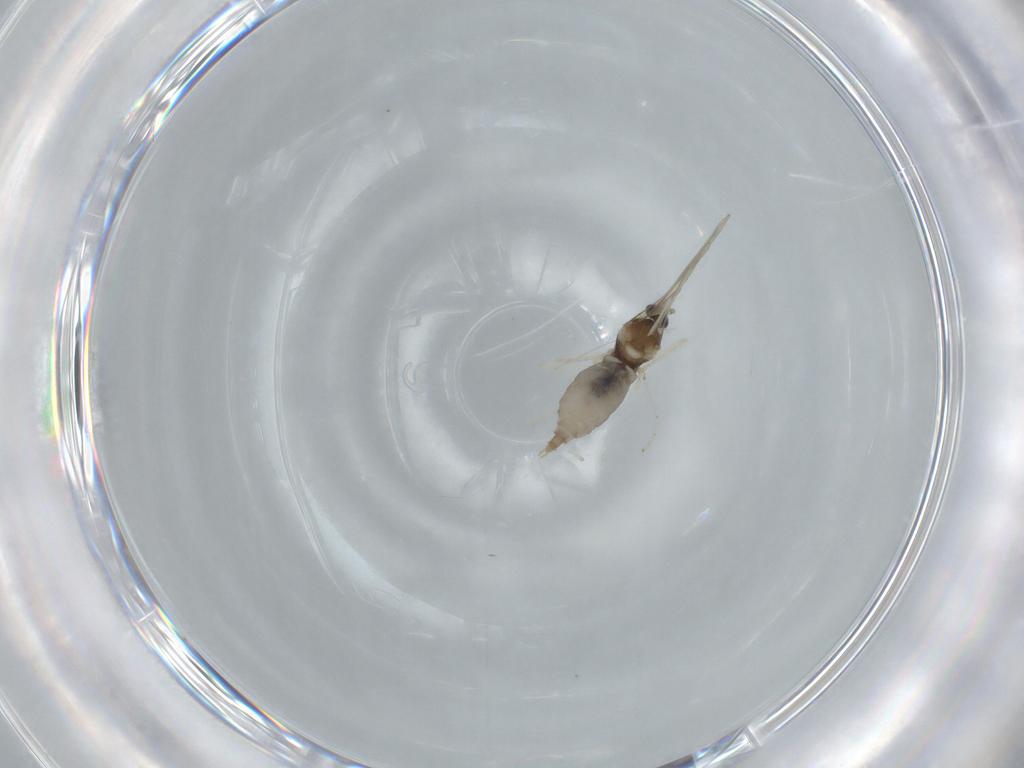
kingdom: Animalia
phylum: Arthropoda
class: Insecta
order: Diptera
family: Cecidomyiidae
